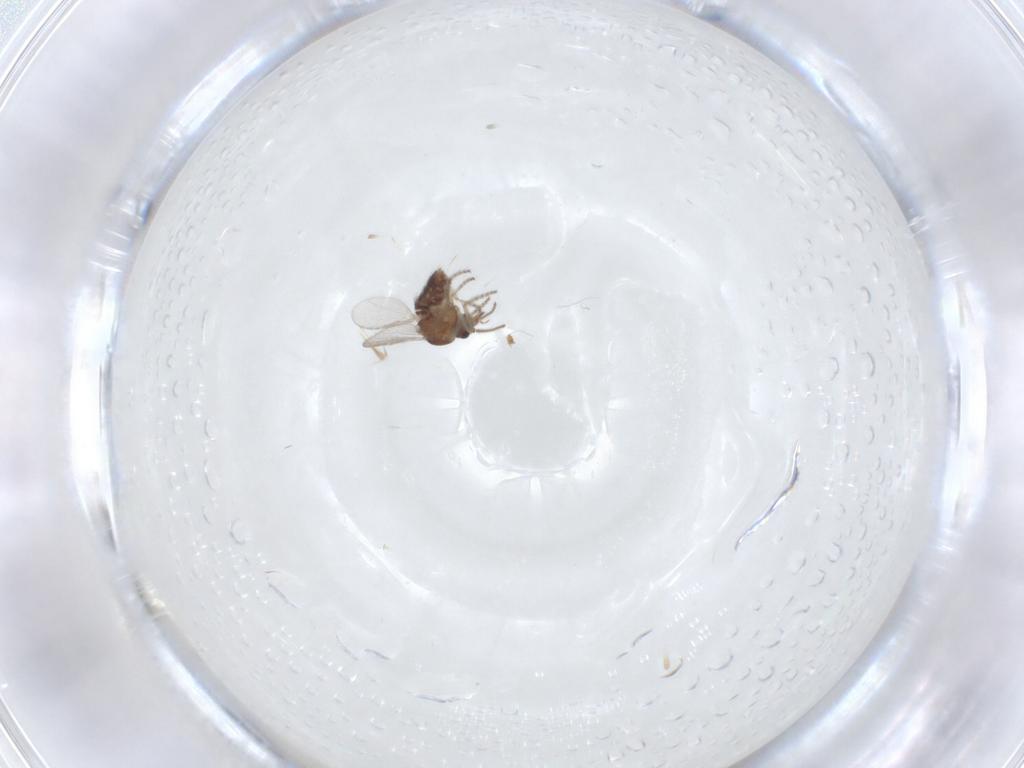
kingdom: Animalia
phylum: Arthropoda
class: Insecta
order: Diptera
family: Ceratopogonidae
